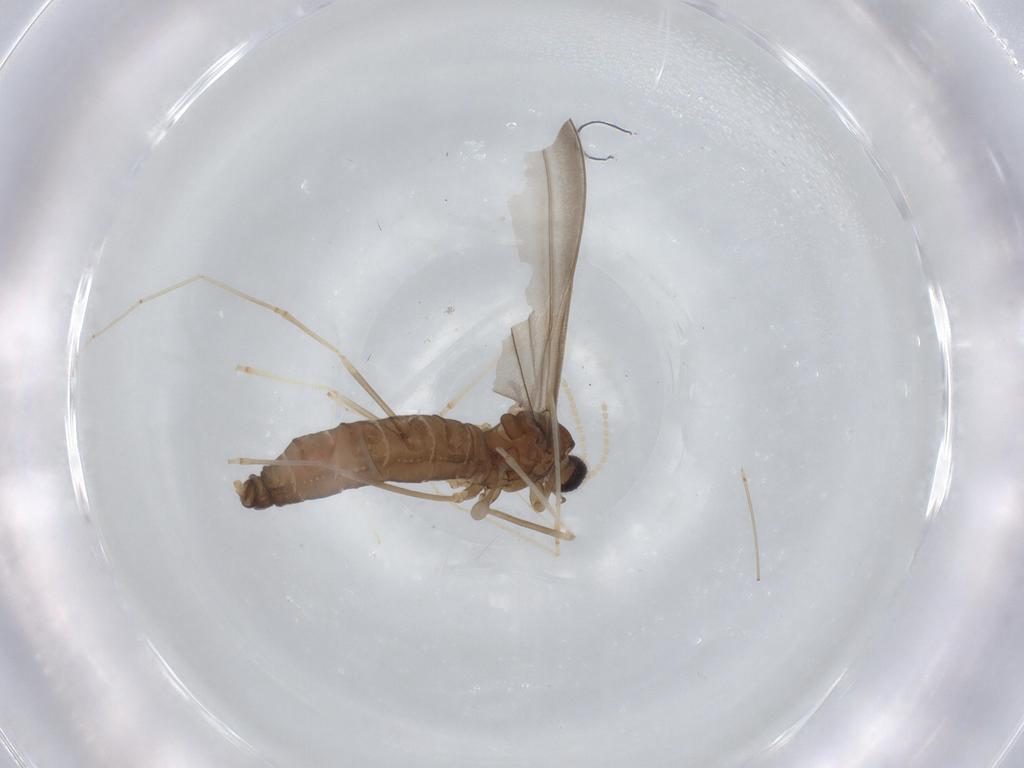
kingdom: Animalia
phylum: Arthropoda
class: Insecta
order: Diptera
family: Cecidomyiidae
